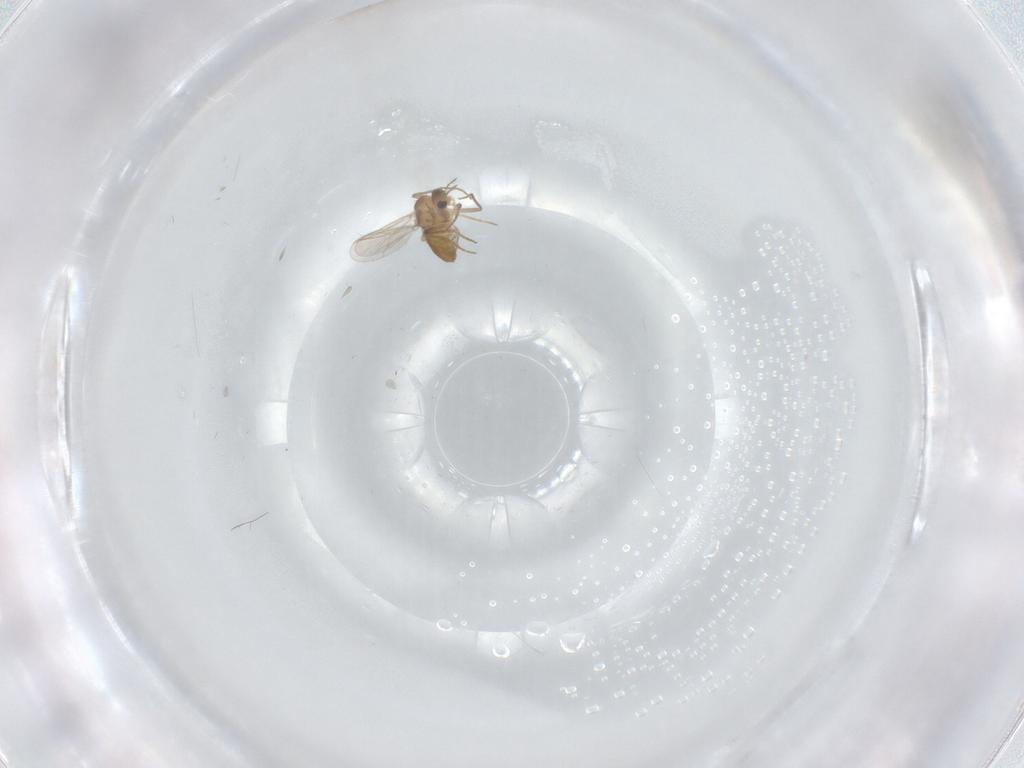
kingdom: Animalia
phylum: Arthropoda
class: Insecta
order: Diptera
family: Chironomidae
